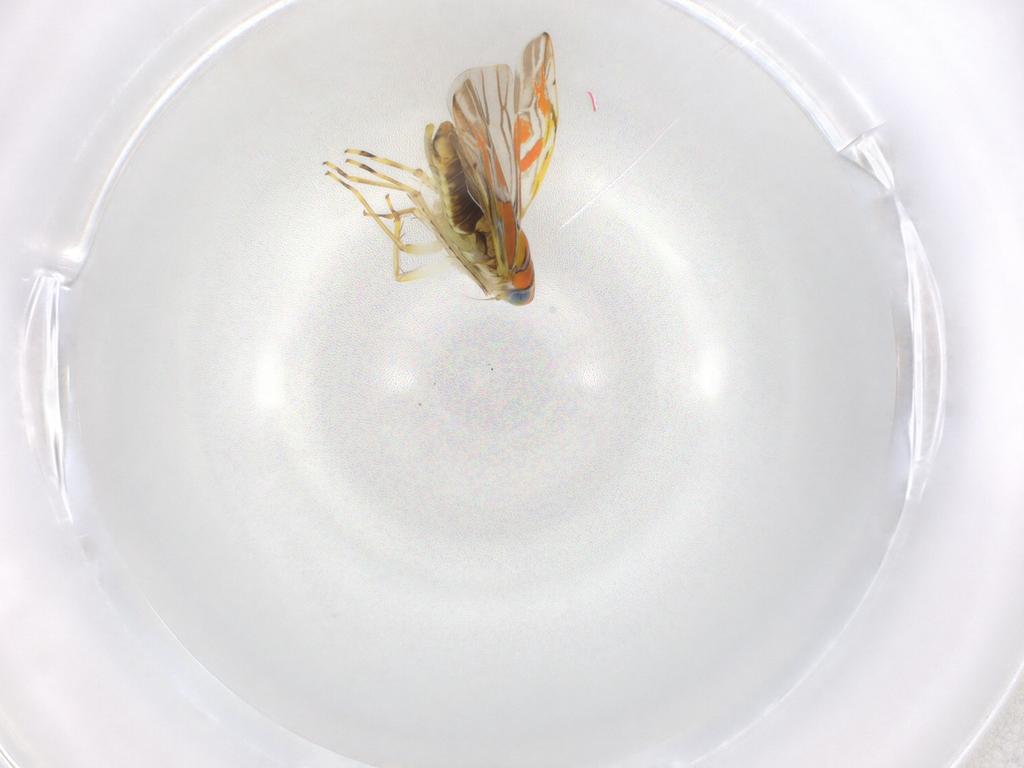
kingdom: Animalia
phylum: Arthropoda
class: Insecta
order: Hemiptera
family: Cicadellidae
